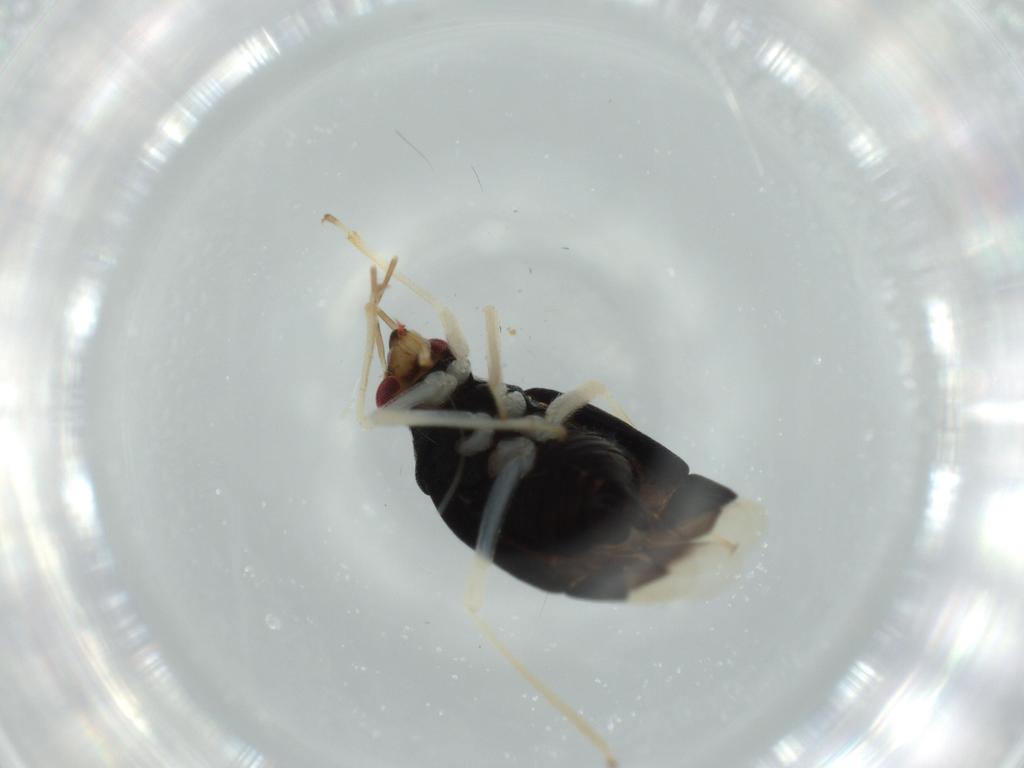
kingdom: Animalia
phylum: Arthropoda
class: Insecta
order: Hemiptera
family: Miridae
